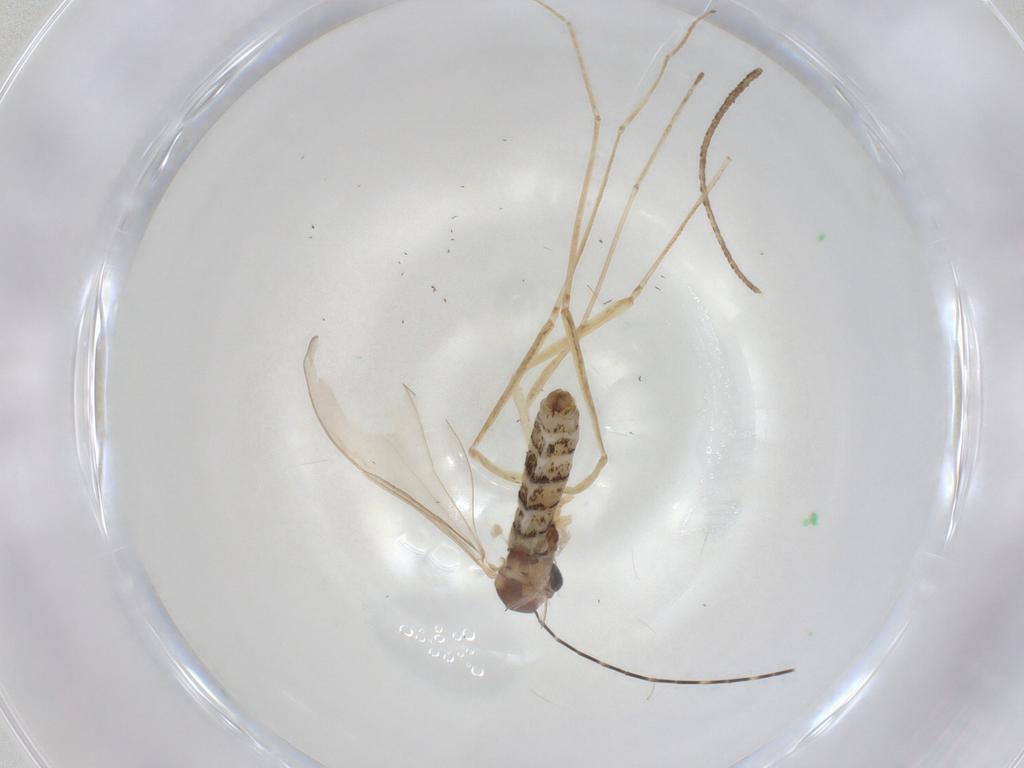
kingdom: Animalia
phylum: Arthropoda
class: Insecta
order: Diptera
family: Cecidomyiidae
